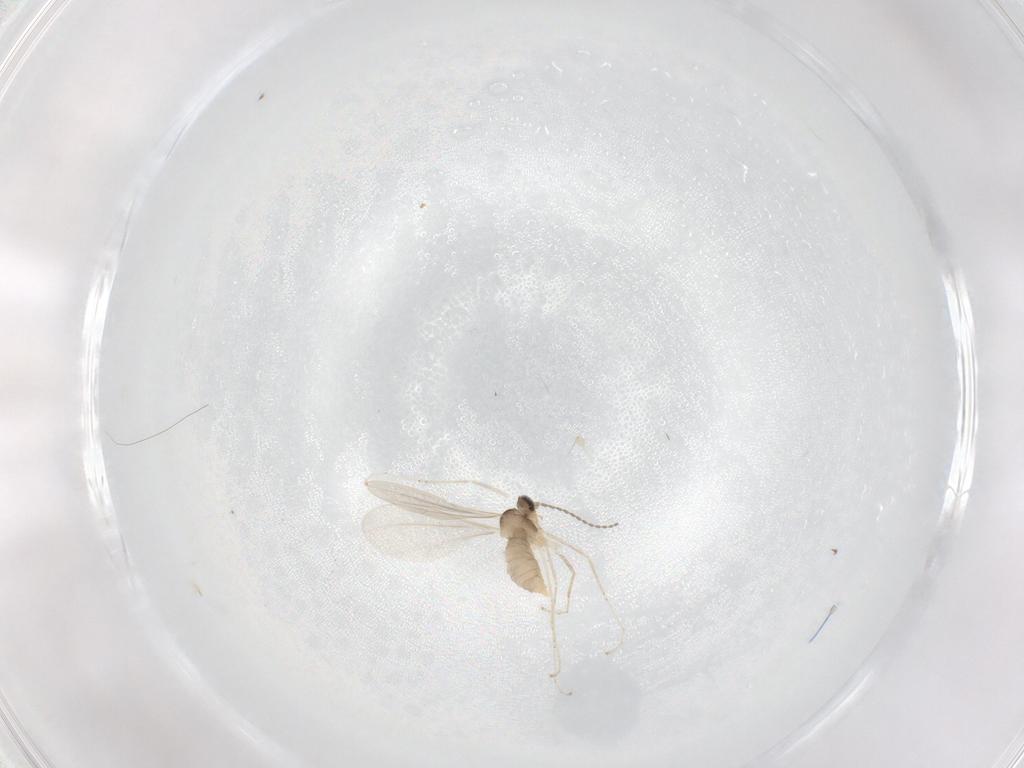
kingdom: Animalia
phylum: Arthropoda
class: Insecta
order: Diptera
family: Cecidomyiidae
